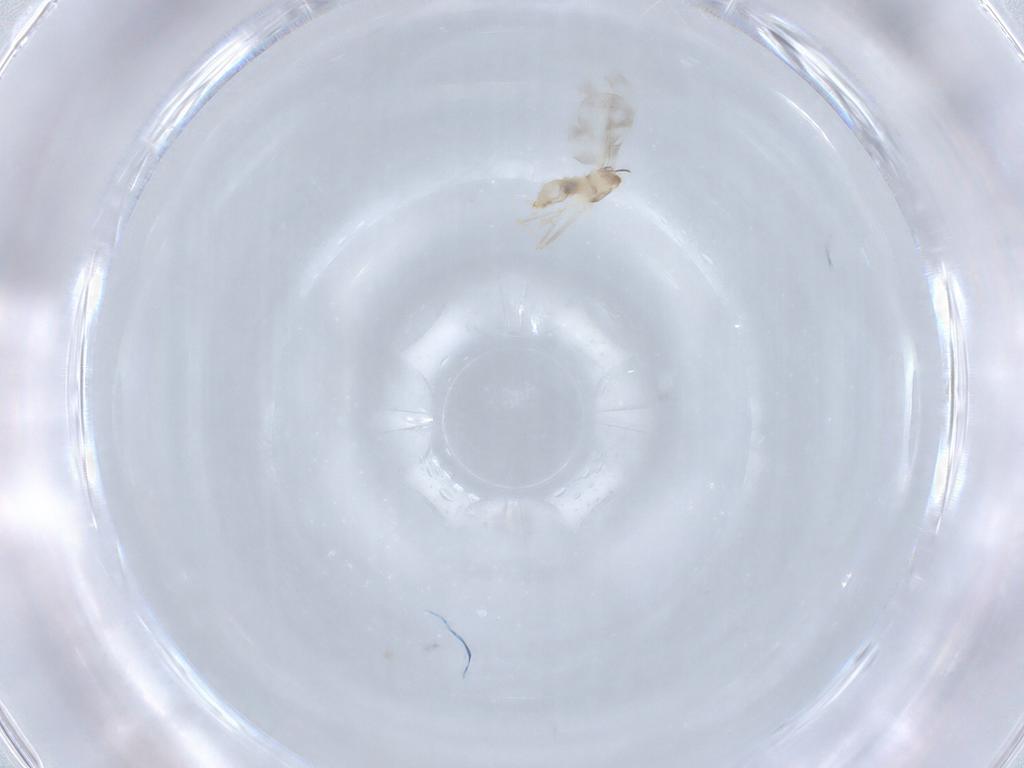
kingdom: Animalia
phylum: Arthropoda
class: Insecta
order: Diptera
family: Cecidomyiidae
